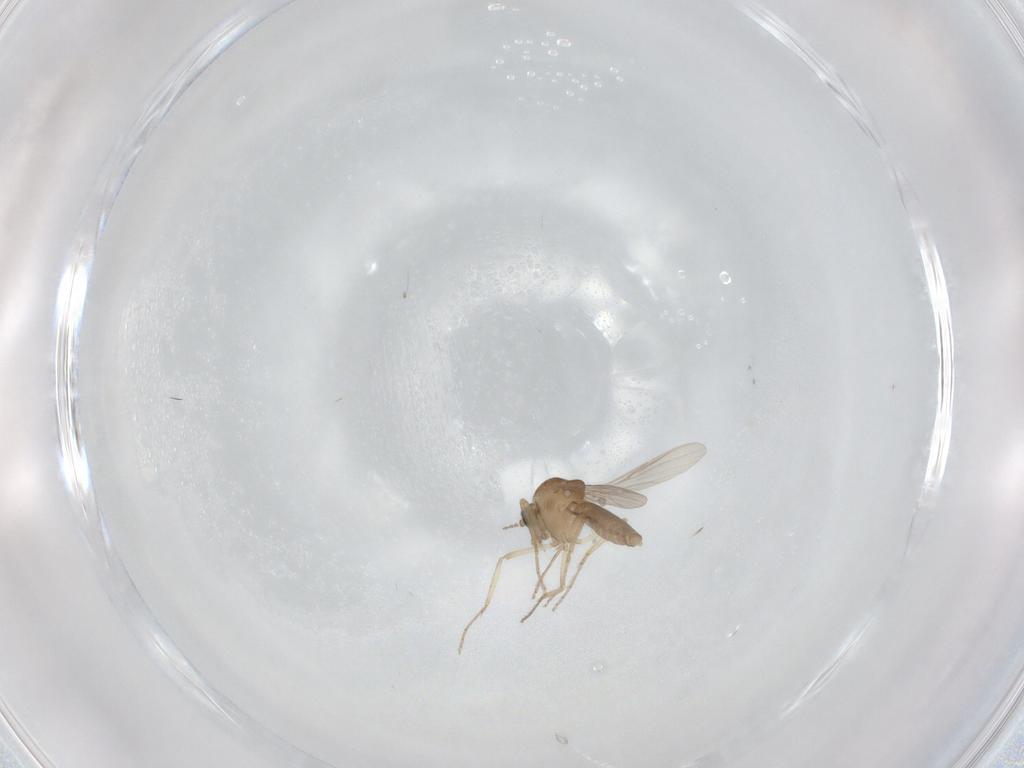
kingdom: Animalia
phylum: Arthropoda
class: Insecta
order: Diptera
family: Ceratopogonidae
